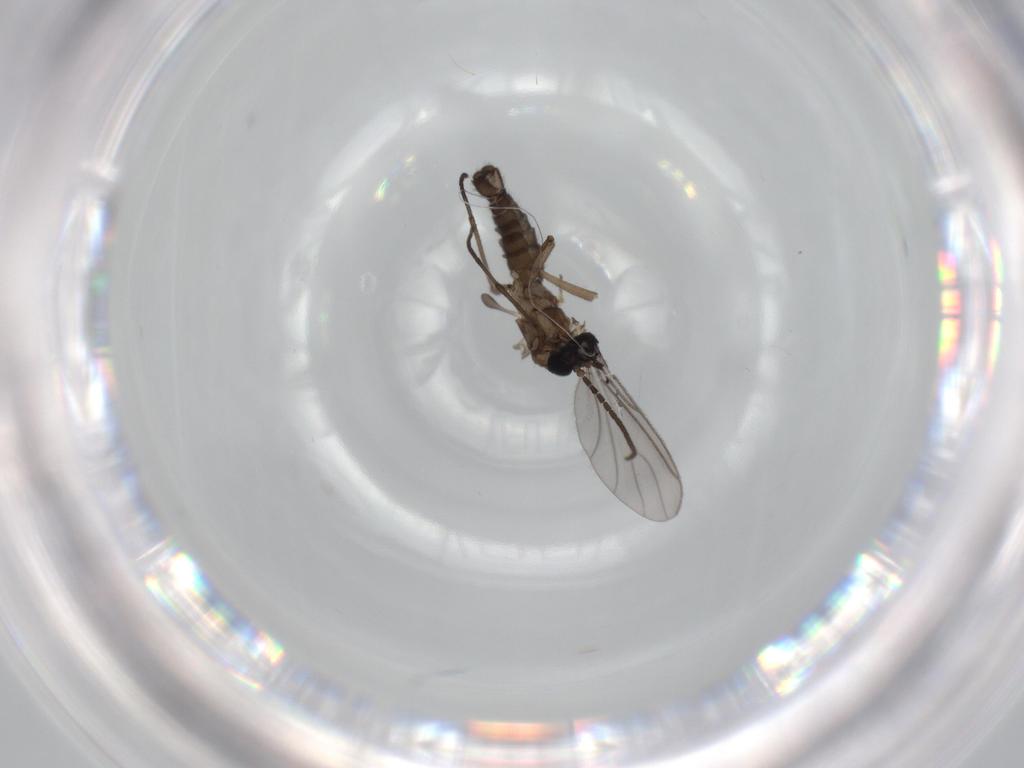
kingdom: Animalia
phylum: Arthropoda
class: Insecta
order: Diptera
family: Sciaridae
